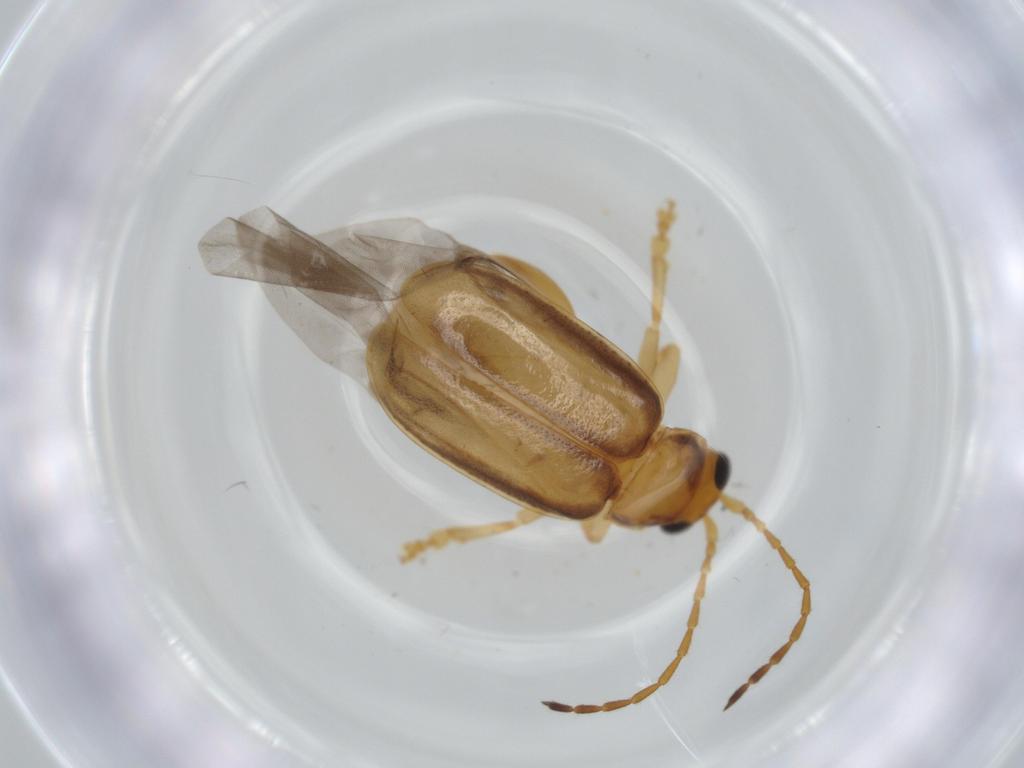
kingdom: Animalia
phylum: Arthropoda
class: Insecta
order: Coleoptera
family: Chrysomelidae
